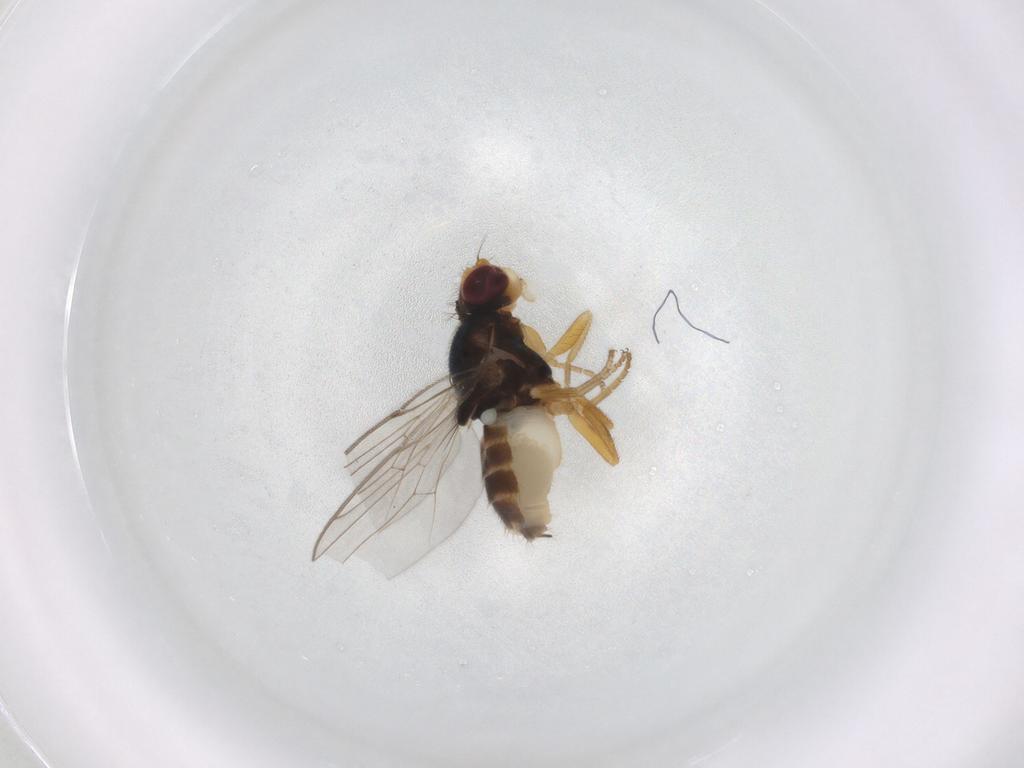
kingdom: Animalia
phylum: Arthropoda
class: Insecta
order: Diptera
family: Chloropidae
